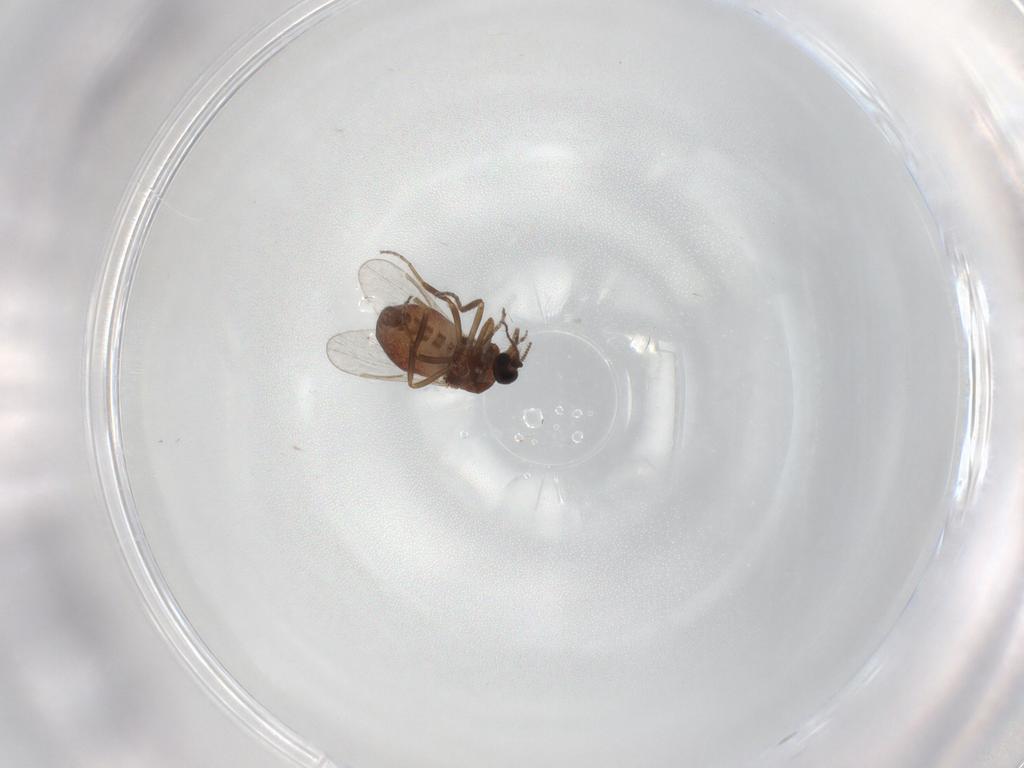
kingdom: Animalia
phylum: Arthropoda
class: Insecta
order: Diptera
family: Ceratopogonidae
